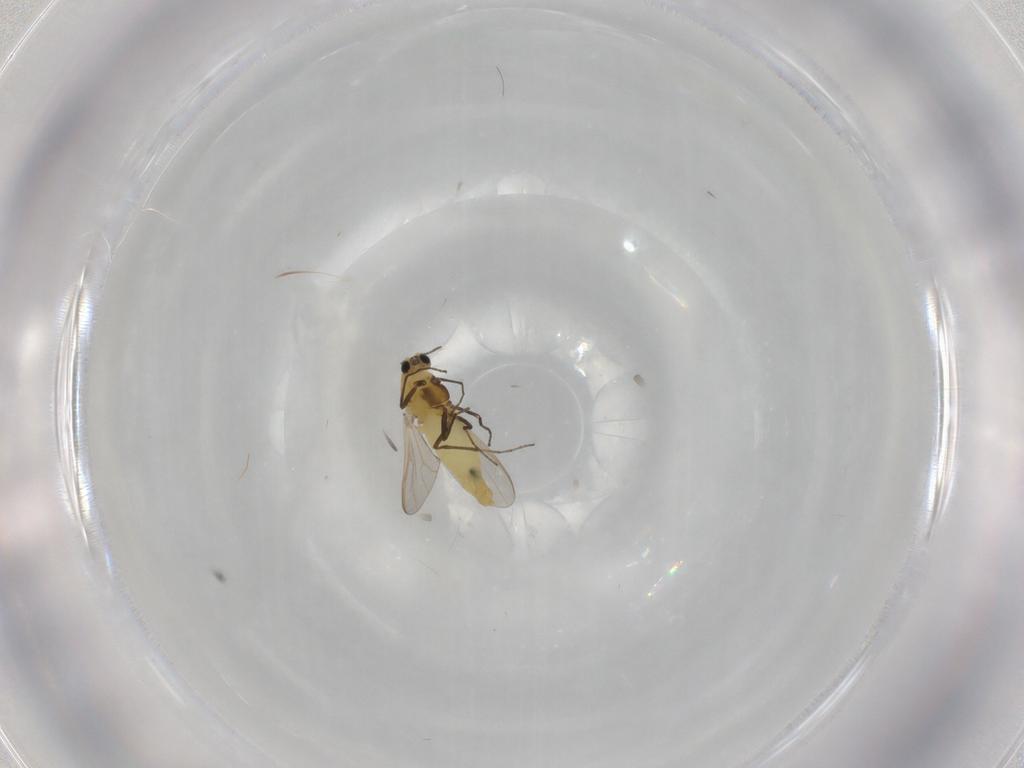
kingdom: Animalia
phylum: Arthropoda
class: Insecta
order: Diptera
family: Chironomidae
